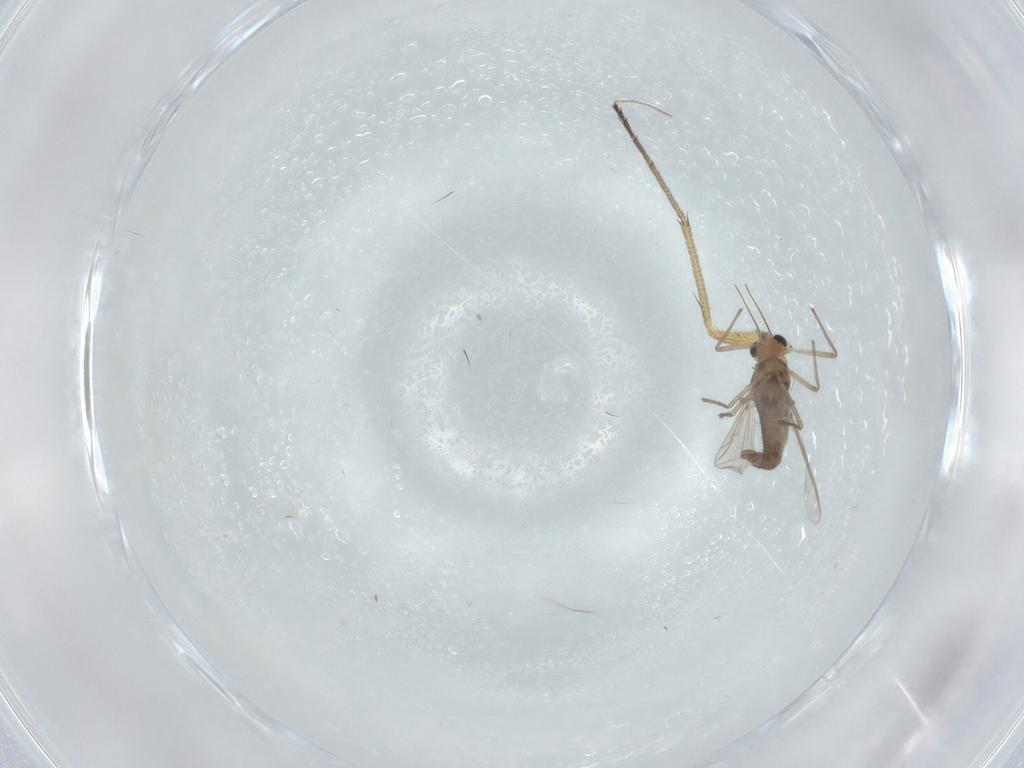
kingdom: Animalia
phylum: Arthropoda
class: Insecta
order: Diptera
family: Chironomidae
